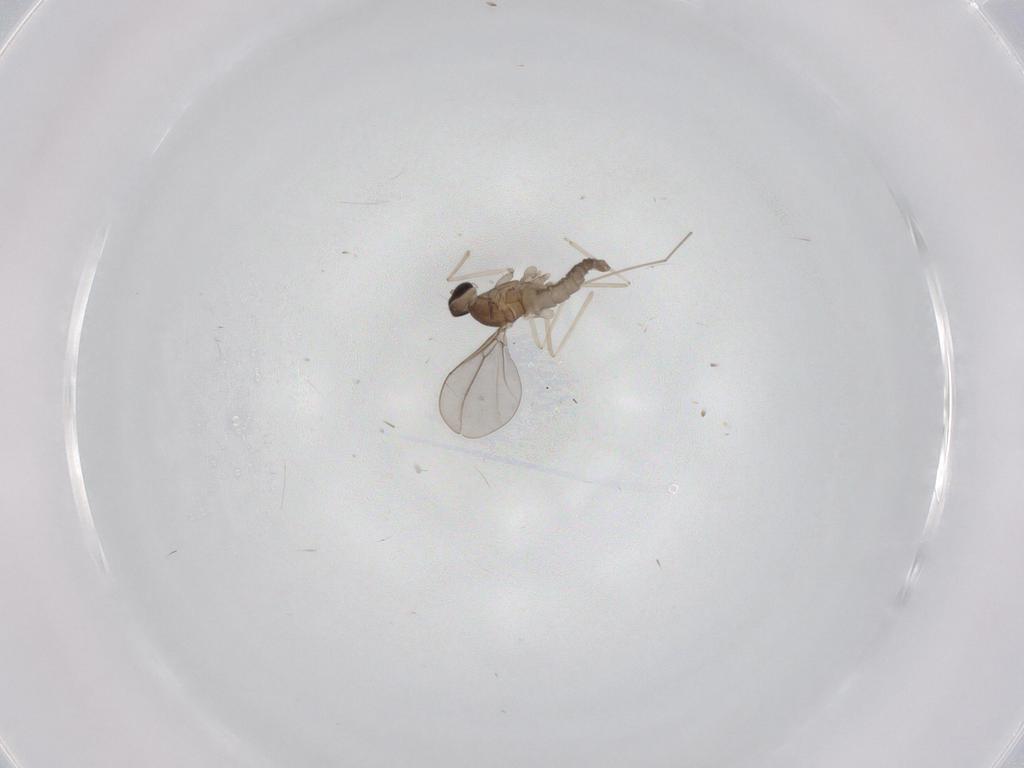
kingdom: Animalia
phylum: Arthropoda
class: Insecta
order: Diptera
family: Cecidomyiidae
